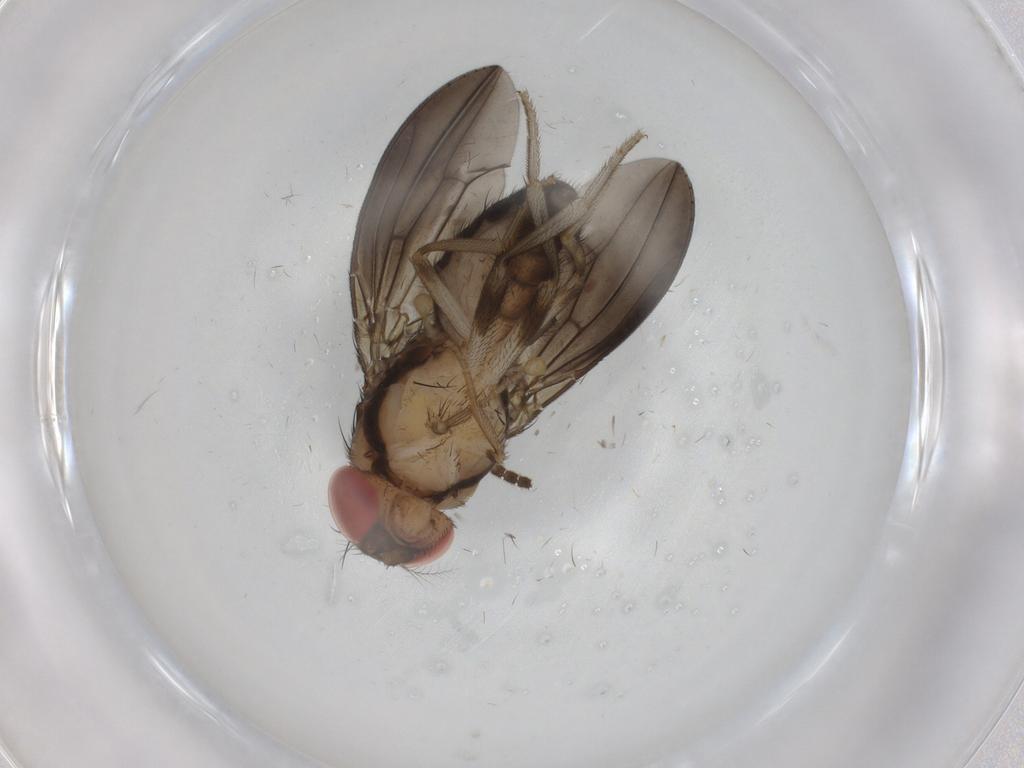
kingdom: Animalia
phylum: Arthropoda
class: Insecta
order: Diptera
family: Drosophilidae
